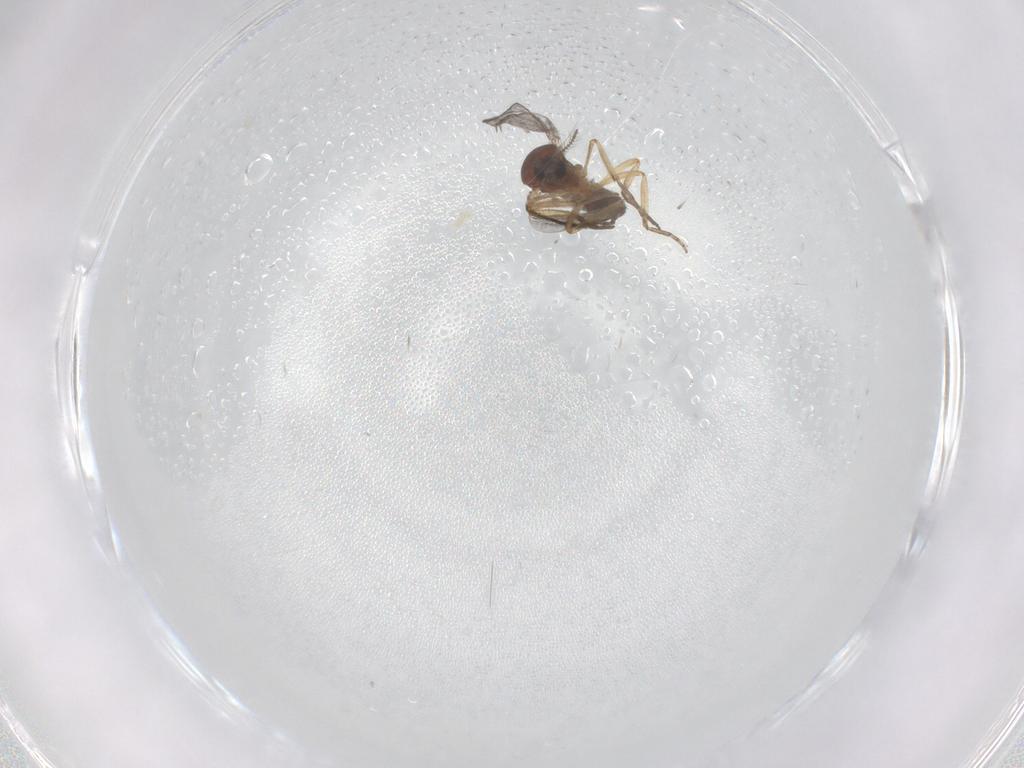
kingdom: Animalia
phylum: Arthropoda
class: Insecta
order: Diptera
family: Ceratopogonidae
